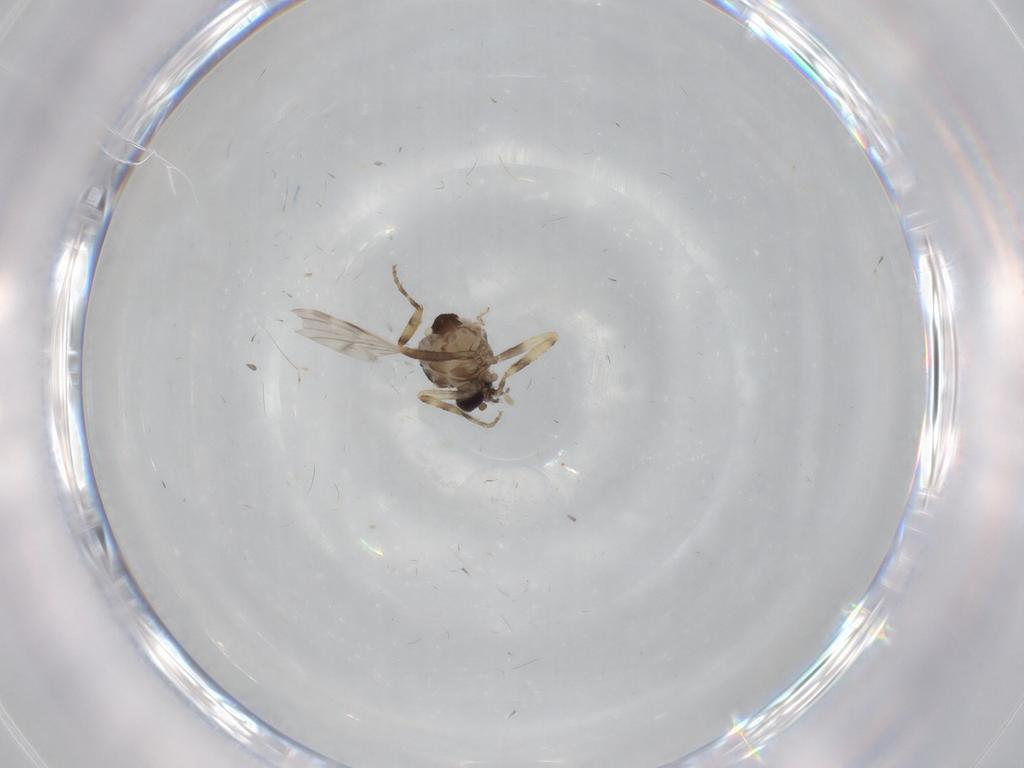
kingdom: Animalia
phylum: Arthropoda
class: Insecta
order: Diptera
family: Ceratopogonidae
